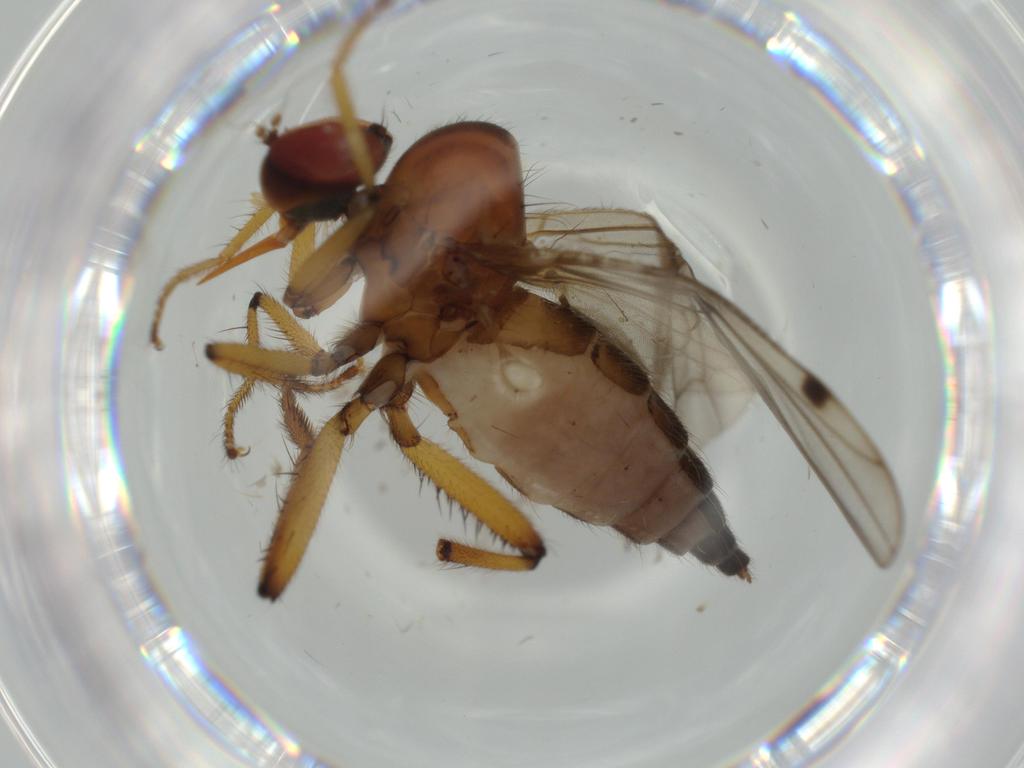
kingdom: Animalia
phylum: Arthropoda
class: Insecta
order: Diptera
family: Hybotidae
